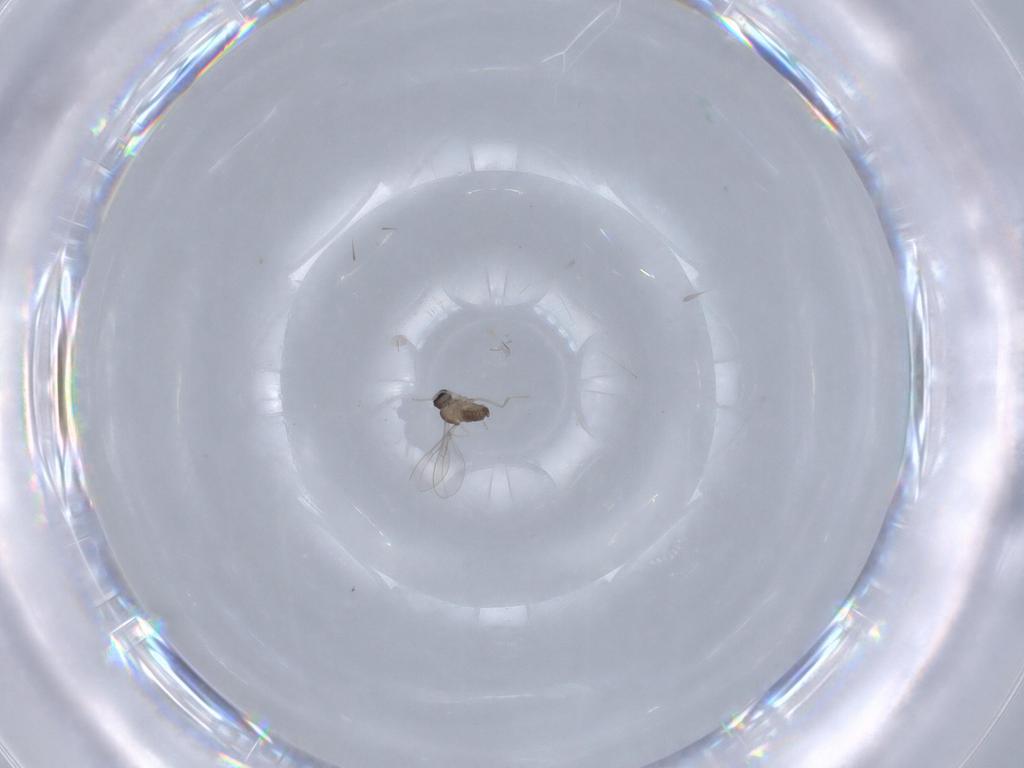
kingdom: Animalia
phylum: Arthropoda
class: Insecta
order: Diptera
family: Cecidomyiidae
